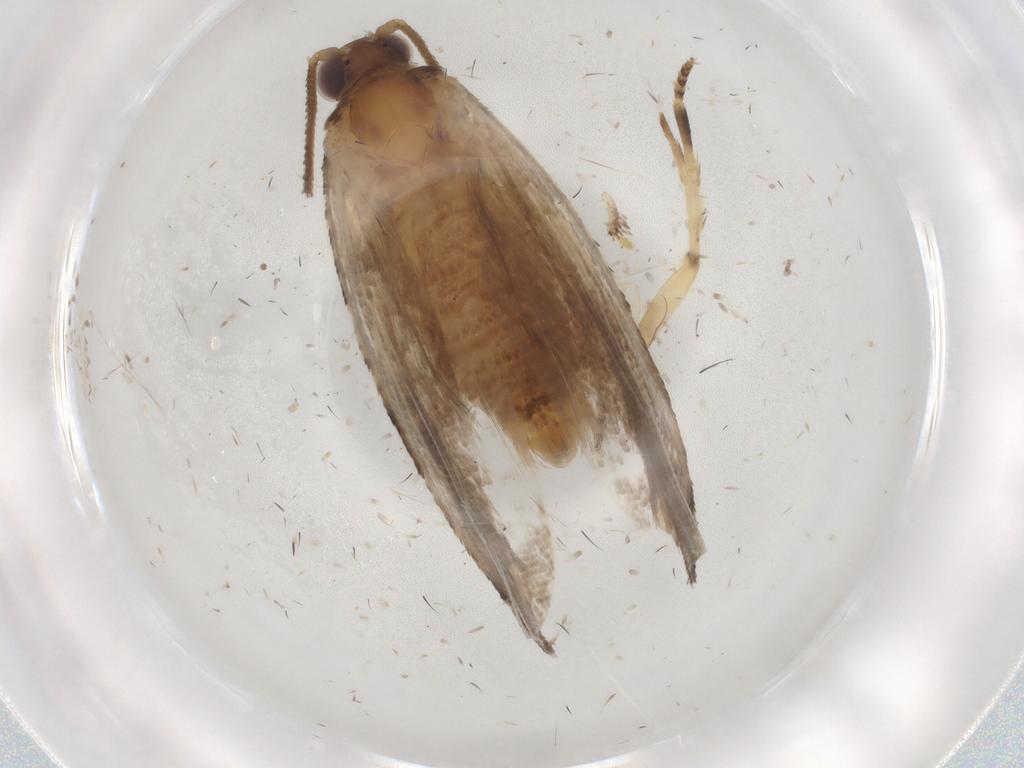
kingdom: Animalia
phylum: Arthropoda
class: Insecta
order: Lepidoptera
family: Cosmopterigidae
